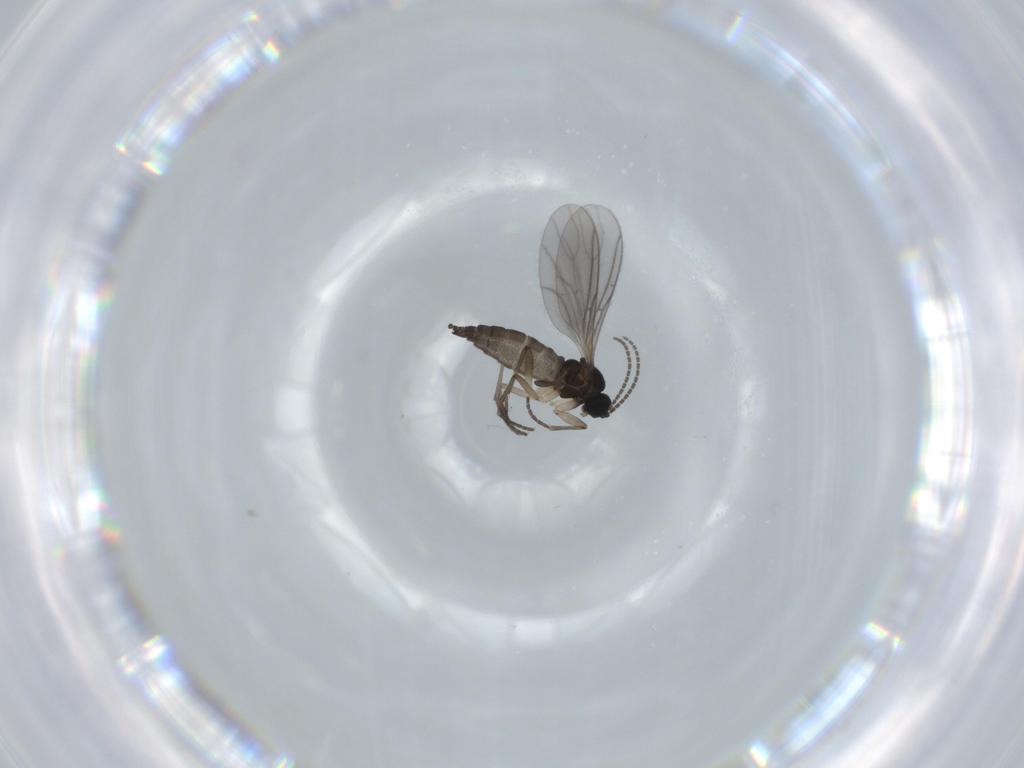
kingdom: Animalia
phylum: Arthropoda
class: Insecta
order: Diptera
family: Sciaridae
